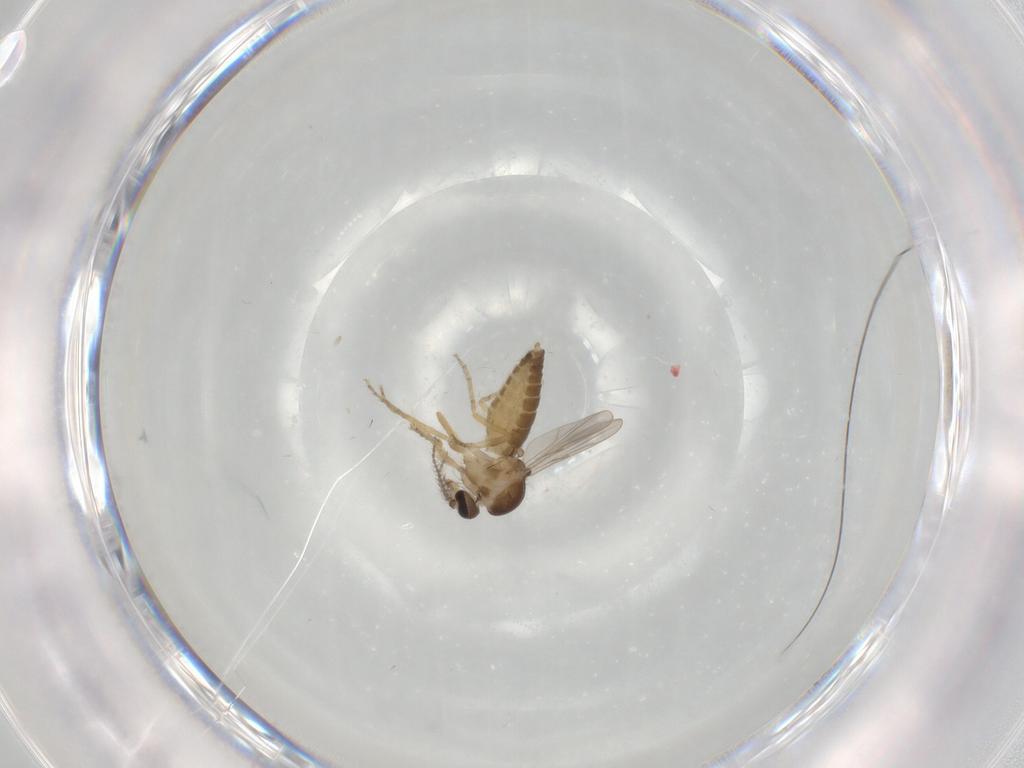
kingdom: Animalia
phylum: Arthropoda
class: Insecta
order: Diptera
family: Ceratopogonidae
